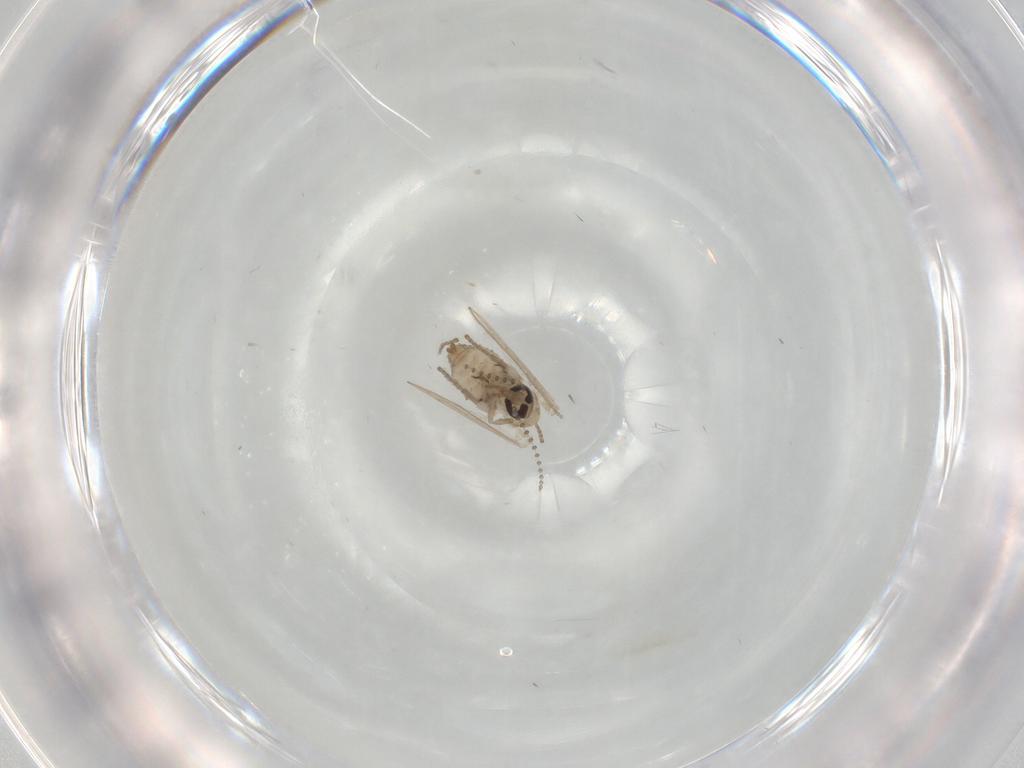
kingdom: Animalia
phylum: Arthropoda
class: Insecta
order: Diptera
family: Psychodidae
